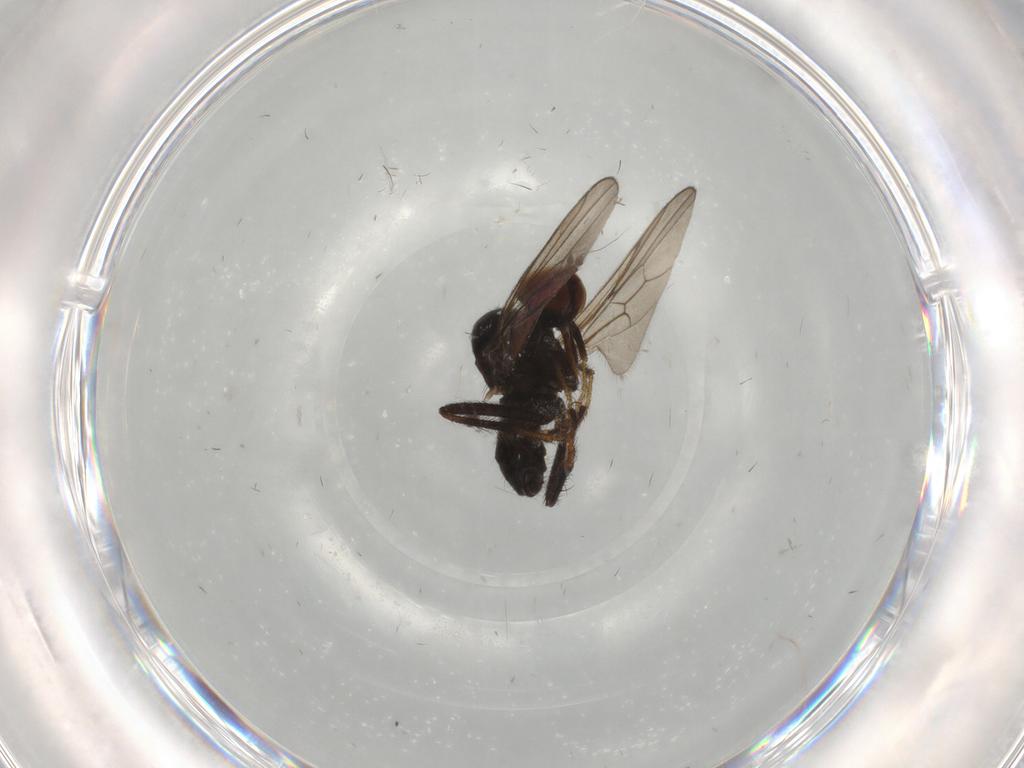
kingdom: Animalia
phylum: Arthropoda
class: Insecta
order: Diptera
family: Hybotidae
